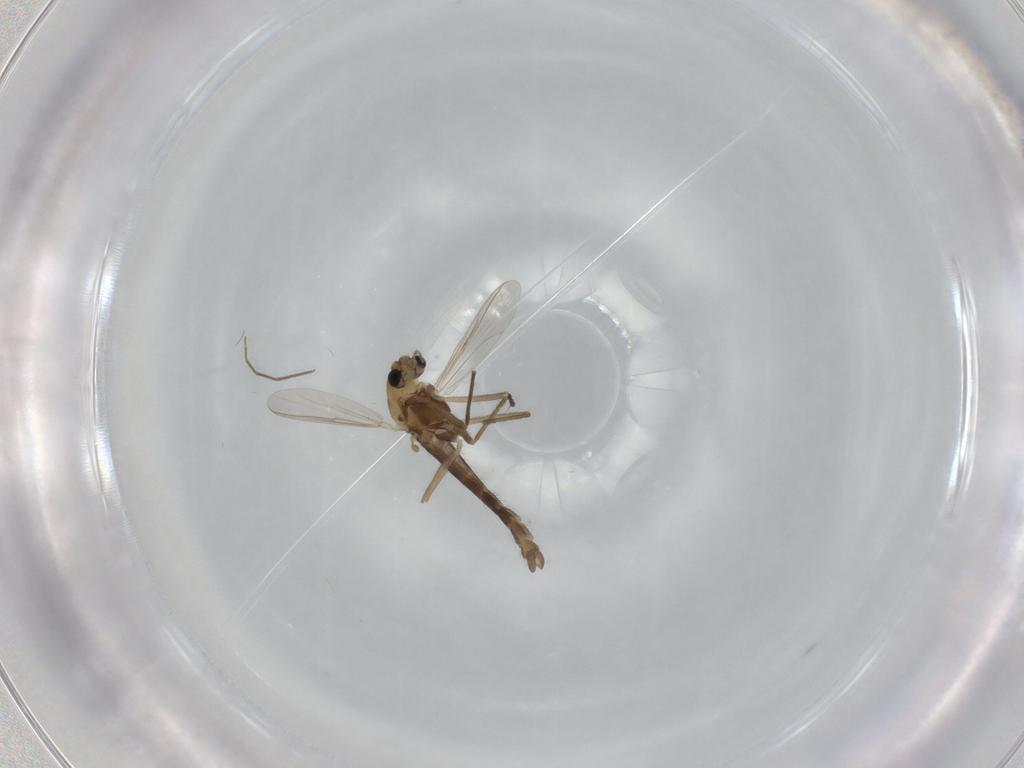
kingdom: Animalia
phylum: Arthropoda
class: Insecta
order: Diptera
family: Chironomidae
